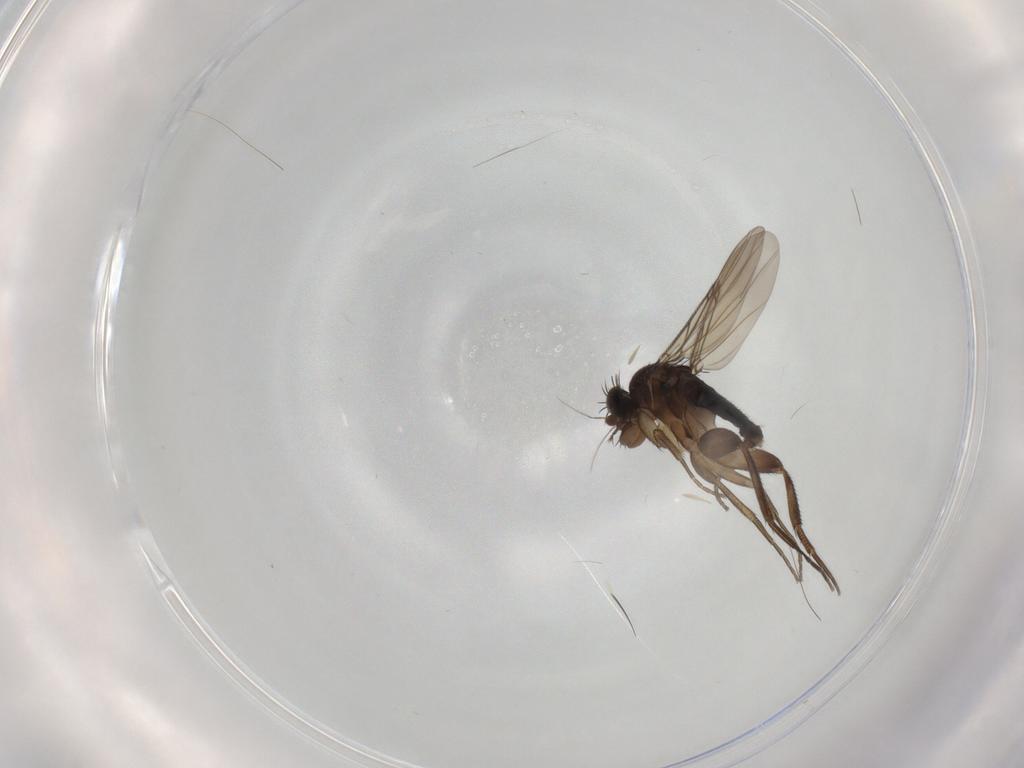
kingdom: Animalia
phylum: Arthropoda
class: Insecta
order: Diptera
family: Phoridae
